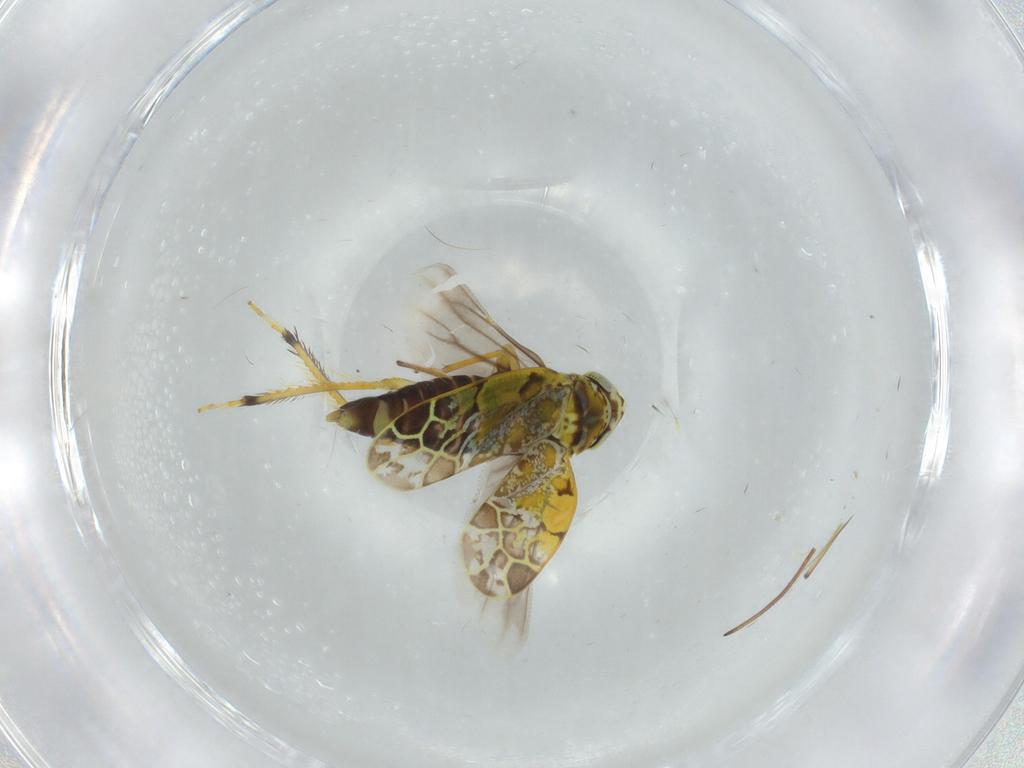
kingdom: Animalia
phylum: Arthropoda
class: Insecta
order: Hemiptera
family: Cicadellidae
